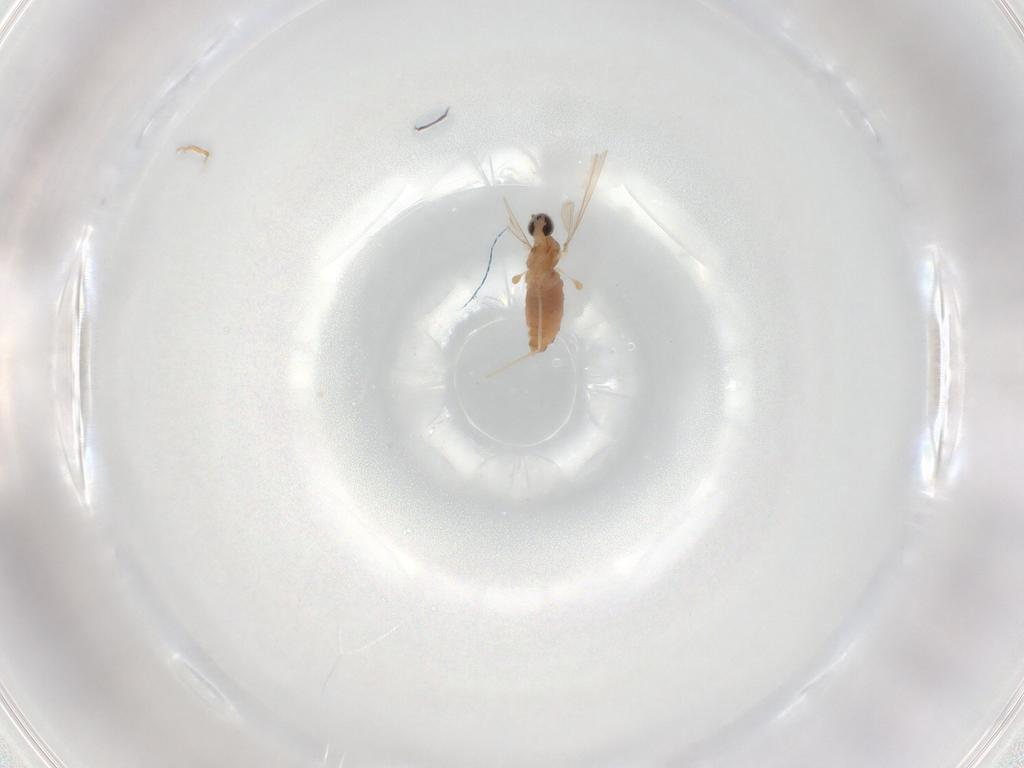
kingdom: Animalia
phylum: Arthropoda
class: Insecta
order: Diptera
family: Cecidomyiidae
